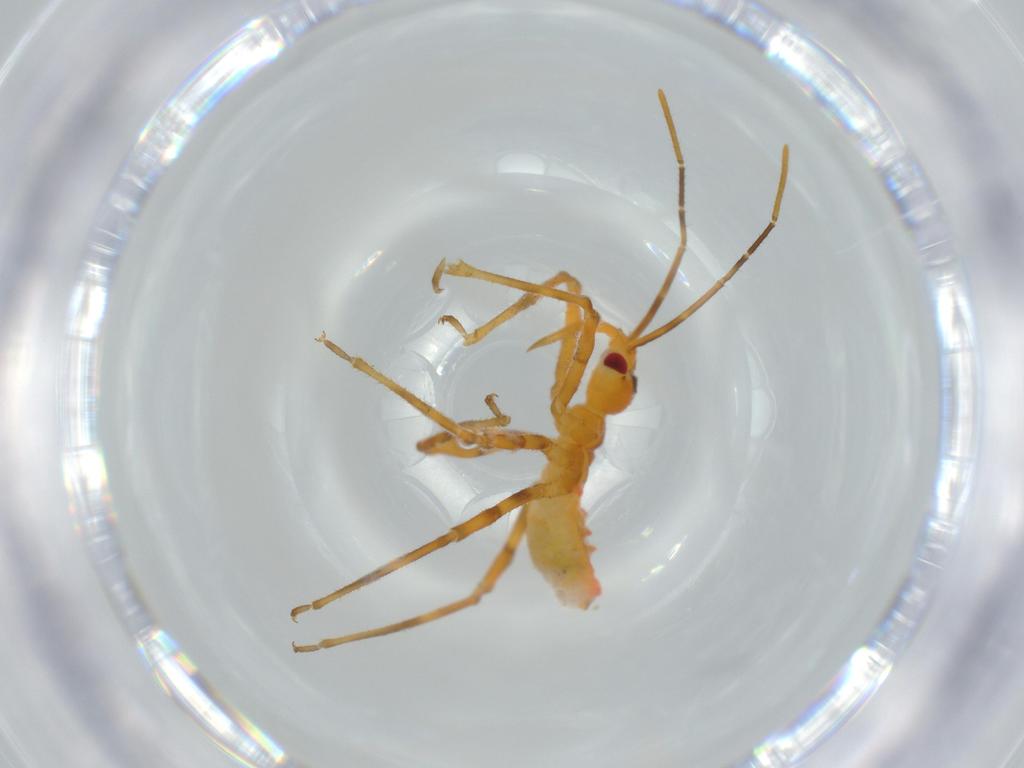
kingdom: Animalia
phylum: Arthropoda
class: Insecta
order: Hemiptera
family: Reduviidae
